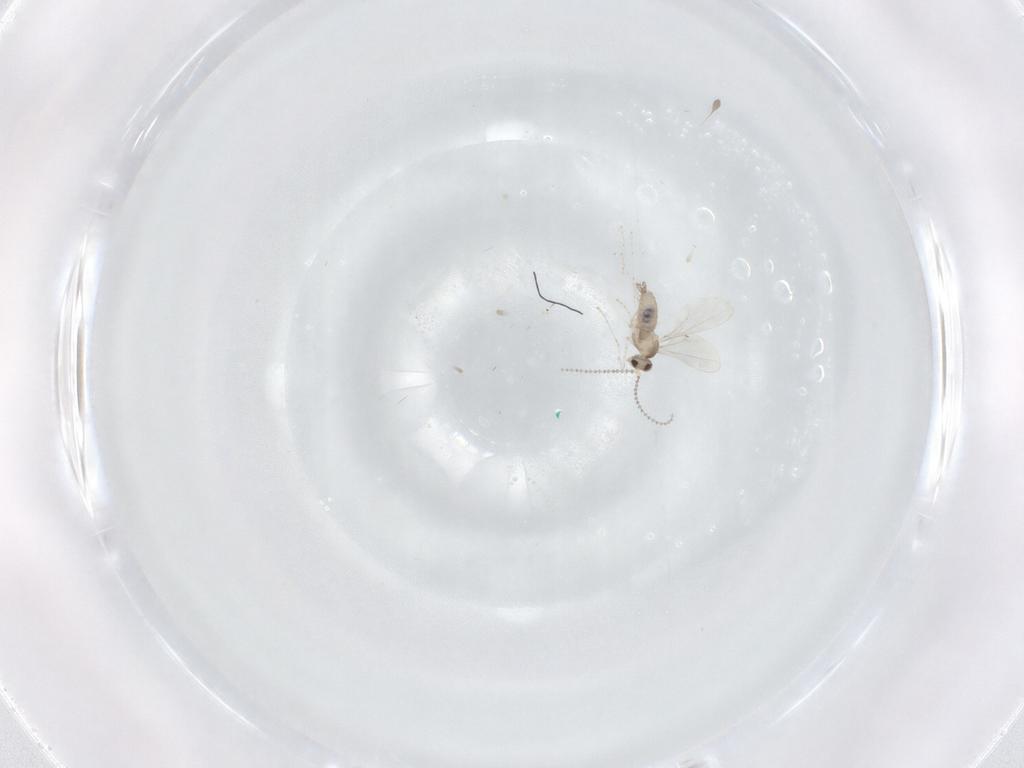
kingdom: Animalia
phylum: Arthropoda
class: Insecta
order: Diptera
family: Cecidomyiidae
